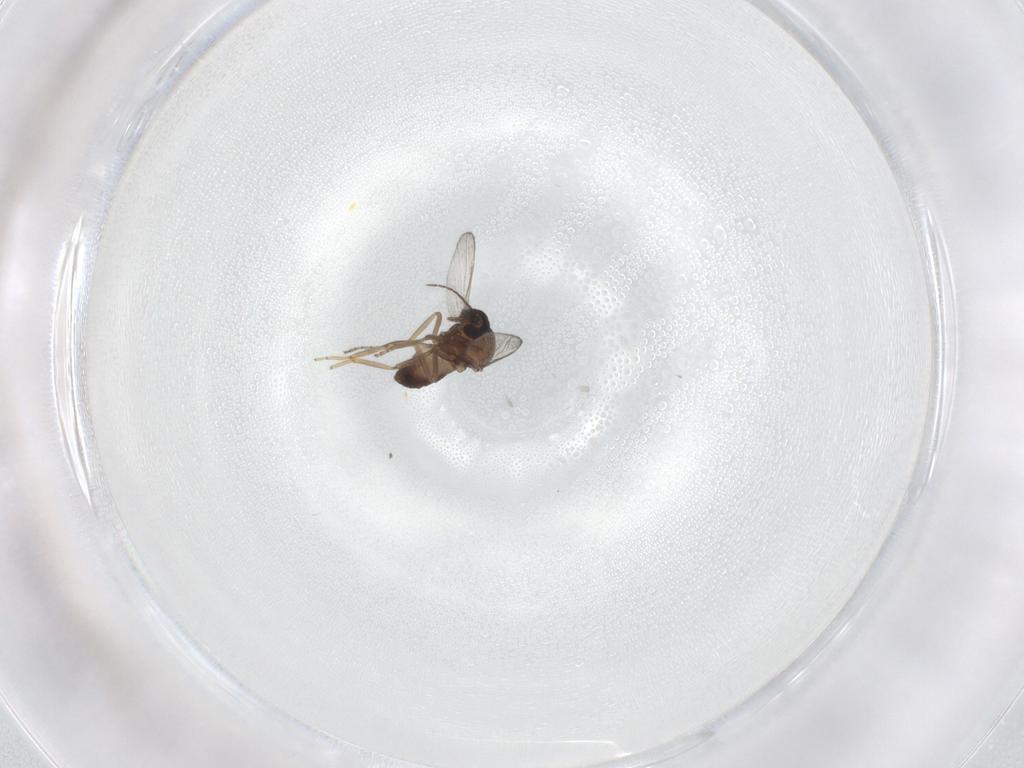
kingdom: Animalia
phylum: Arthropoda
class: Insecta
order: Diptera
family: Ceratopogonidae
